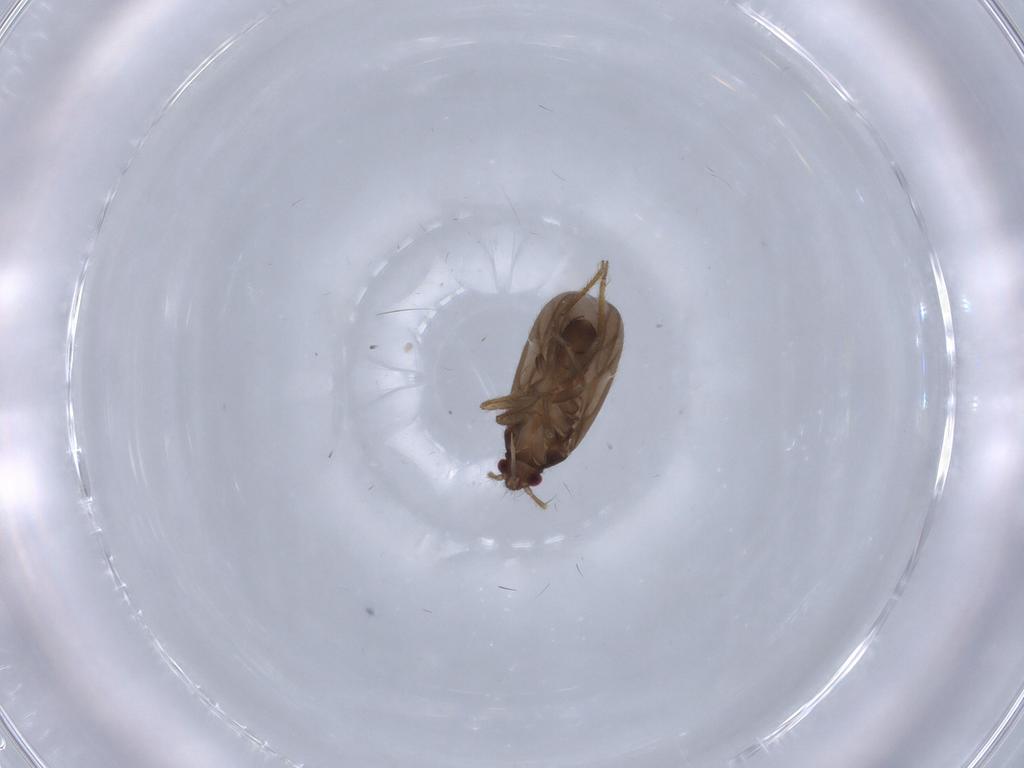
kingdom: Animalia
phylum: Arthropoda
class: Insecta
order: Hemiptera
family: Ceratocombidae
